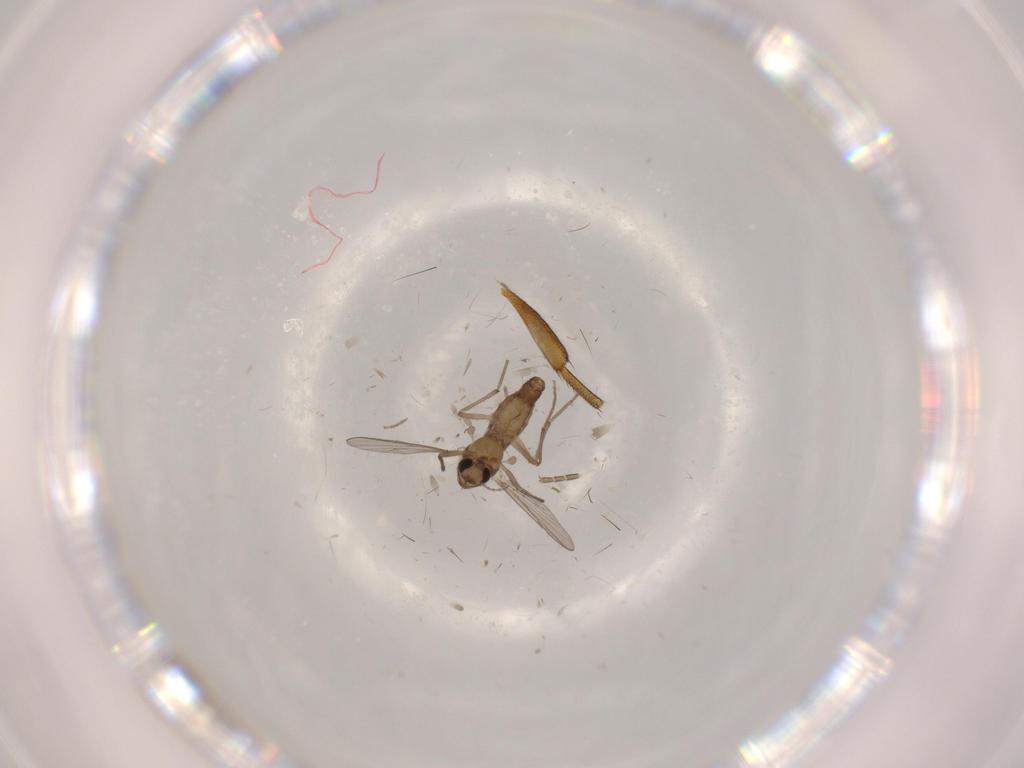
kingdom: Animalia
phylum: Arthropoda
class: Insecta
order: Diptera
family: Chironomidae
